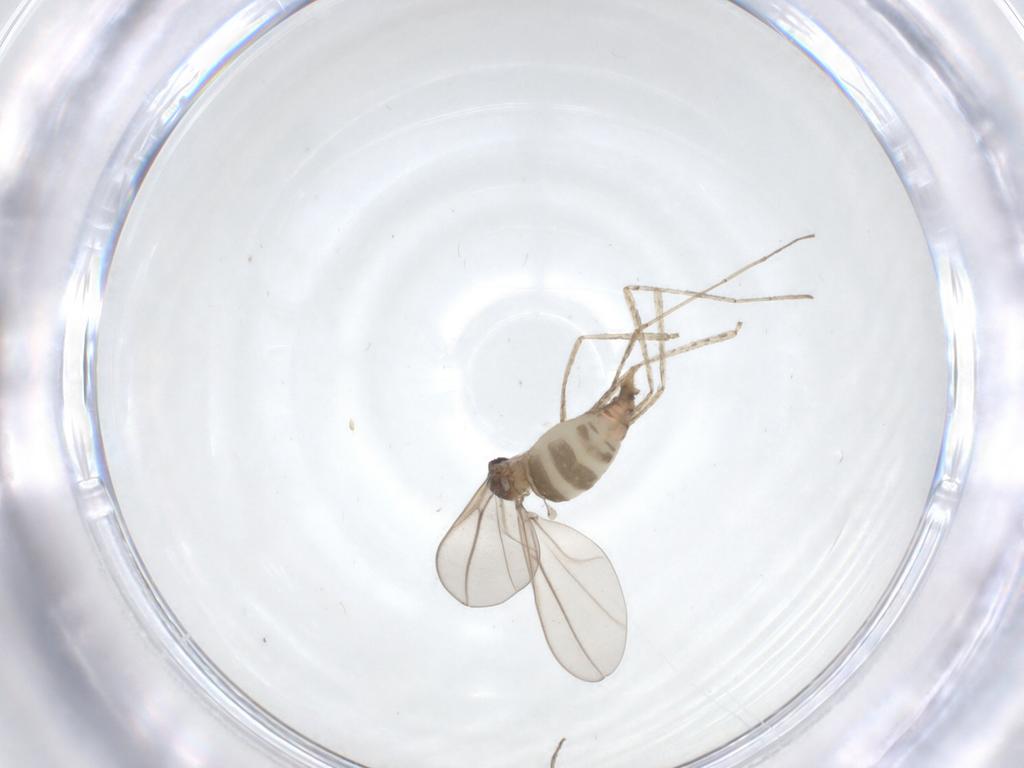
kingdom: Animalia
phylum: Arthropoda
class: Insecta
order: Diptera
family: Cecidomyiidae
